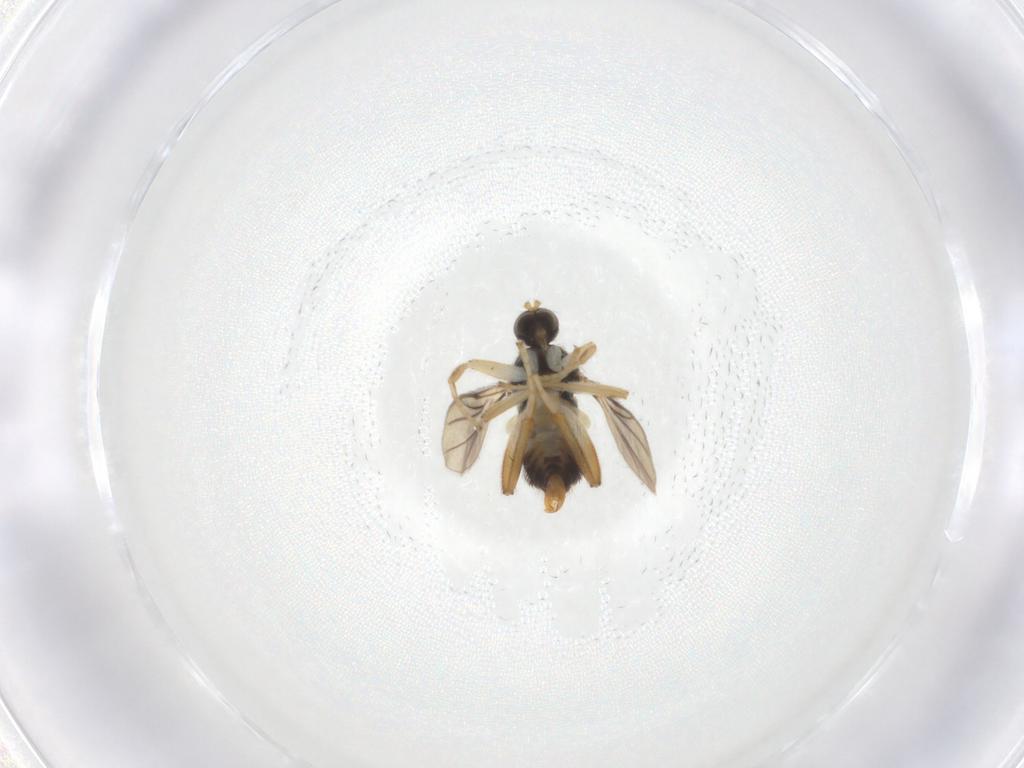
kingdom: Animalia
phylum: Arthropoda
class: Insecta
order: Diptera
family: Hybotidae
